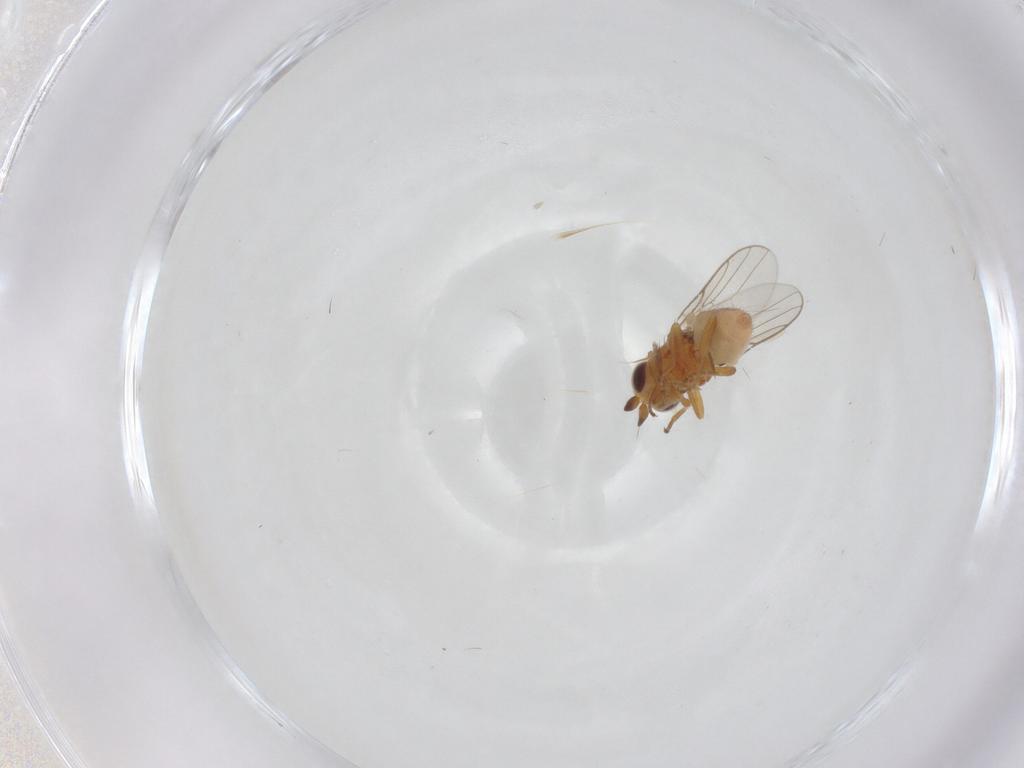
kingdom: Animalia
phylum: Arthropoda
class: Insecta
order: Diptera
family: Chloropidae
